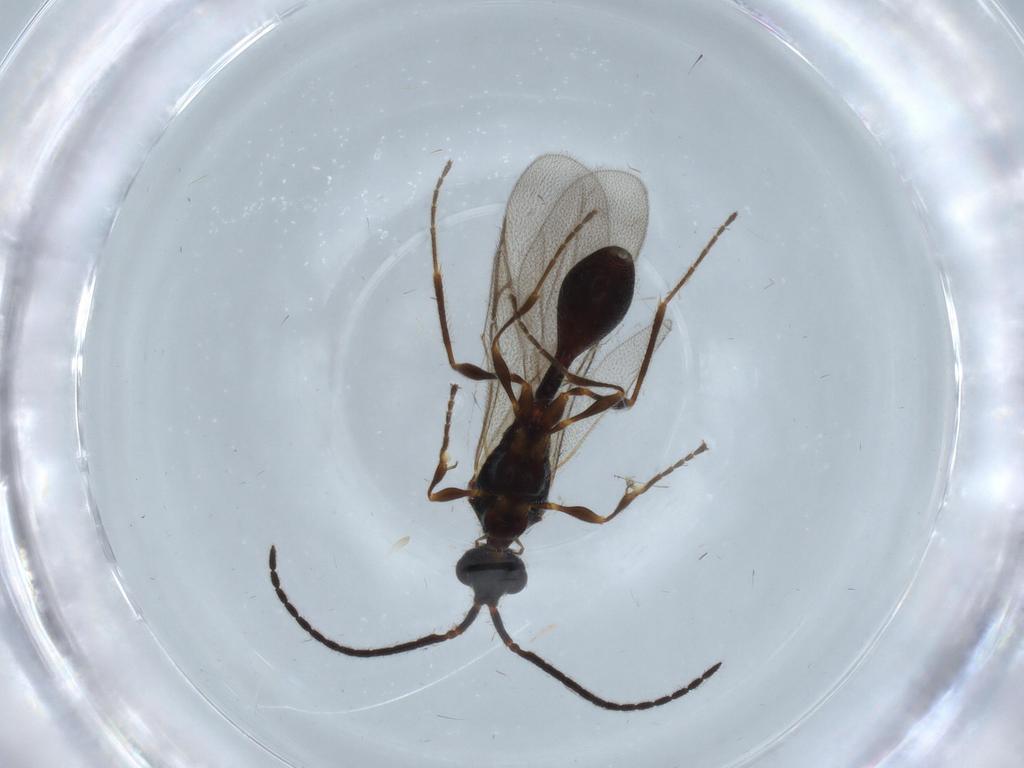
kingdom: Animalia
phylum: Arthropoda
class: Insecta
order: Hymenoptera
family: Diapriidae
